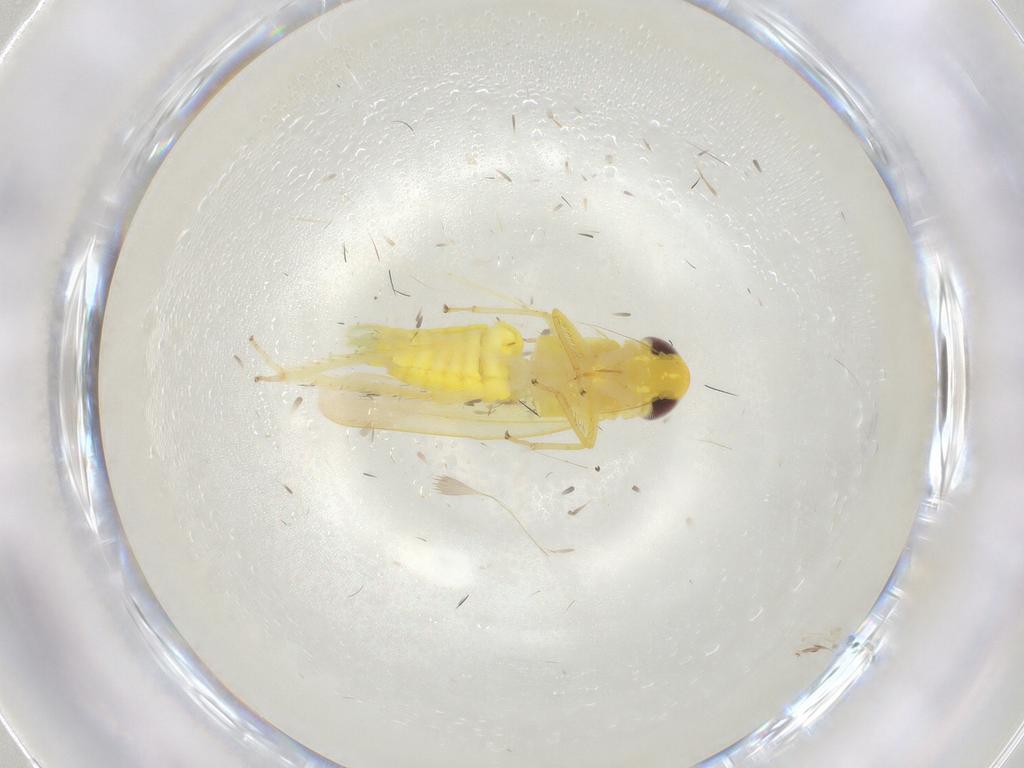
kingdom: Animalia
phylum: Arthropoda
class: Insecta
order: Hemiptera
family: Cicadellidae
